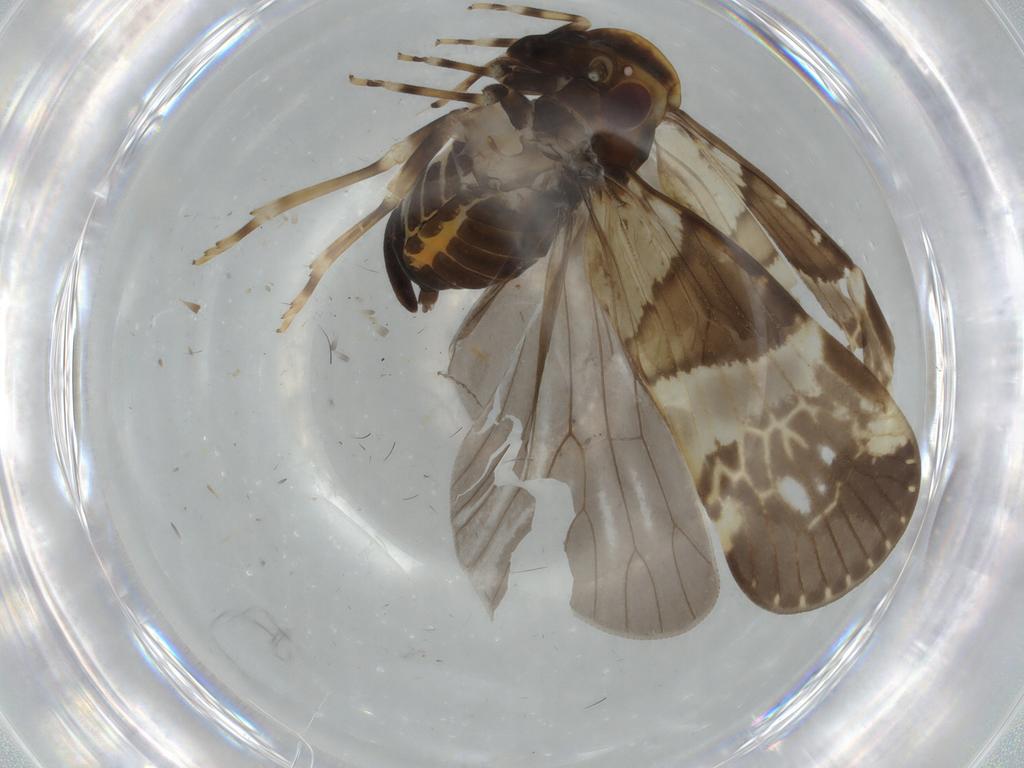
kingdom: Animalia
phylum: Arthropoda
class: Insecta
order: Hemiptera
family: Cixiidae
